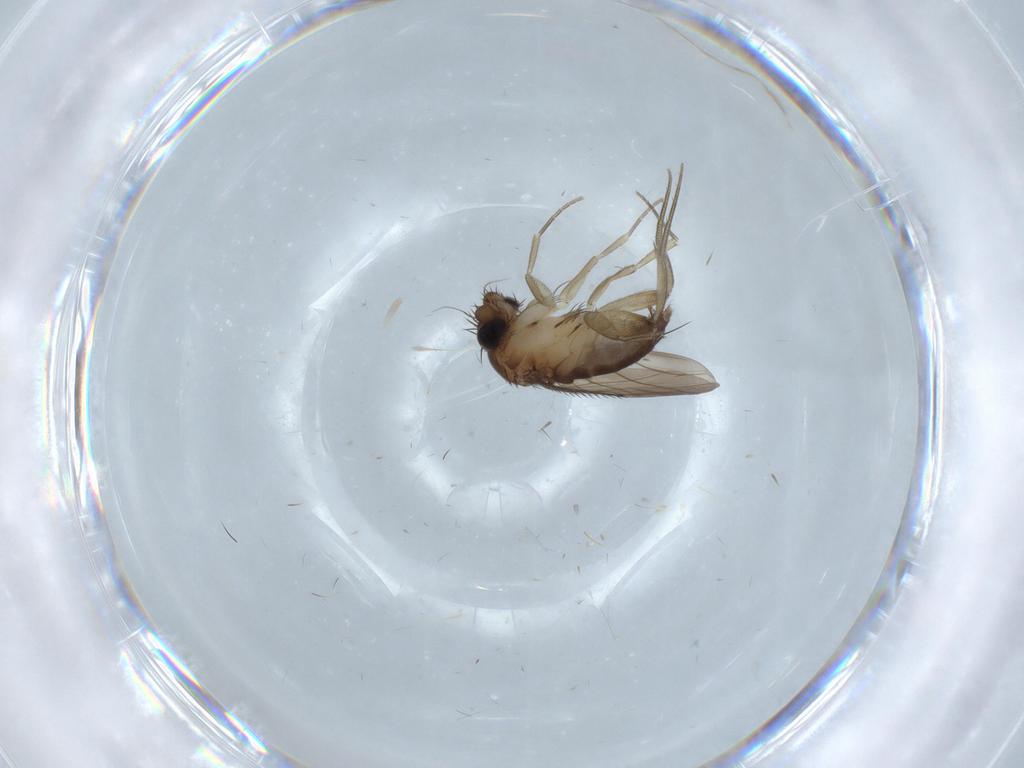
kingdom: Animalia
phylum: Arthropoda
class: Insecta
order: Diptera
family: Phoridae
